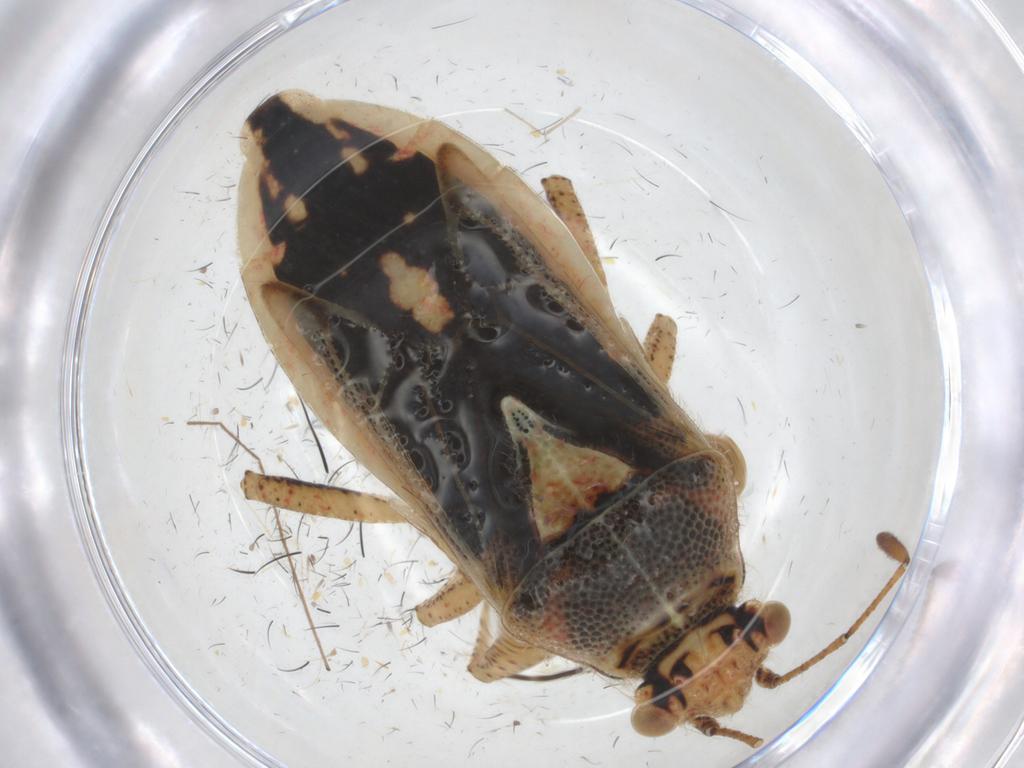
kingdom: Animalia
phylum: Arthropoda
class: Insecta
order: Hemiptera
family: Rhopalidae
